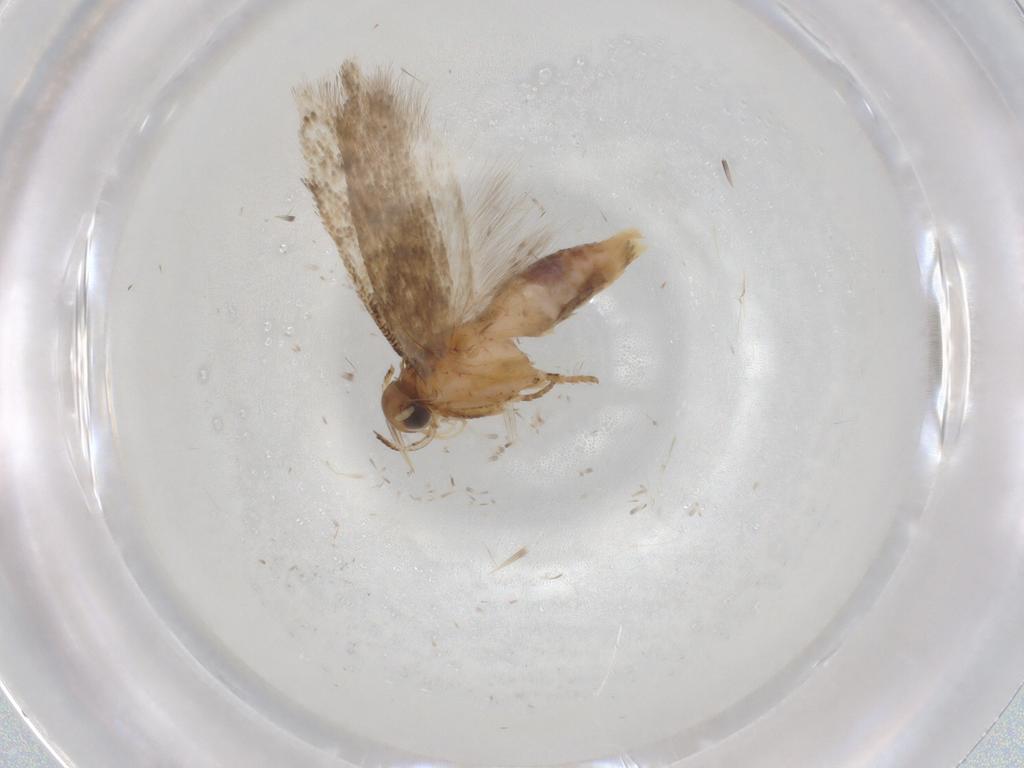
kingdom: Animalia
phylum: Arthropoda
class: Insecta
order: Lepidoptera
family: Gelechiidae
